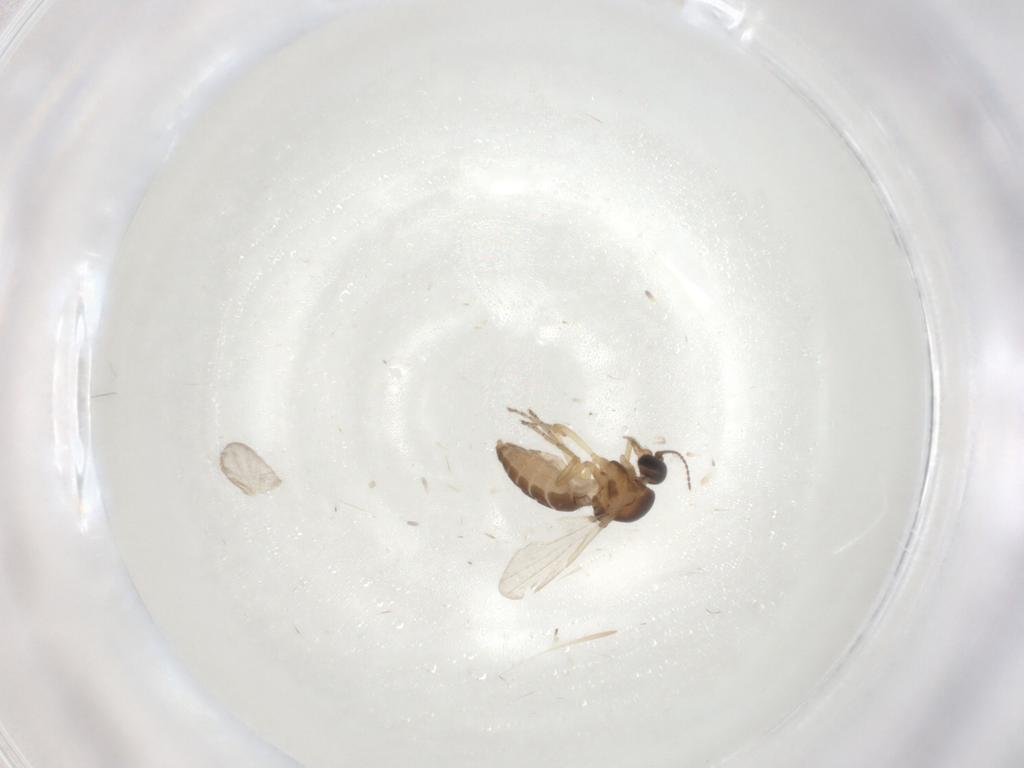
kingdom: Animalia
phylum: Arthropoda
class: Insecta
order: Diptera
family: Ceratopogonidae
